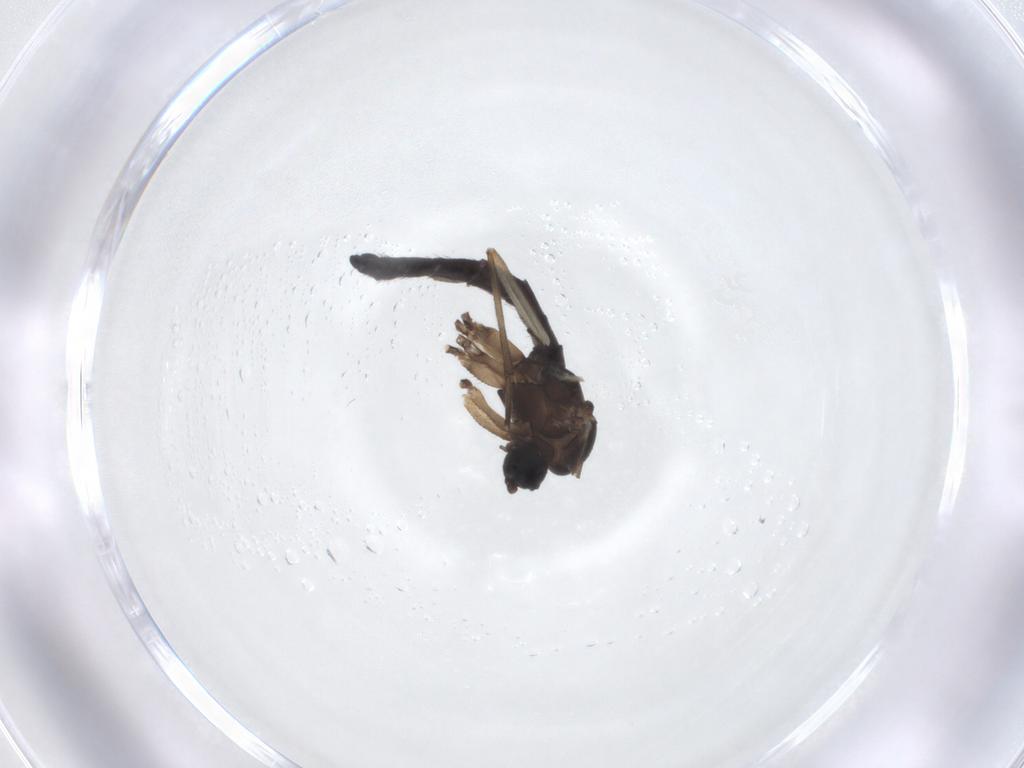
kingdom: Animalia
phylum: Arthropoda
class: Insecta
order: Diptera
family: Sciaridae
